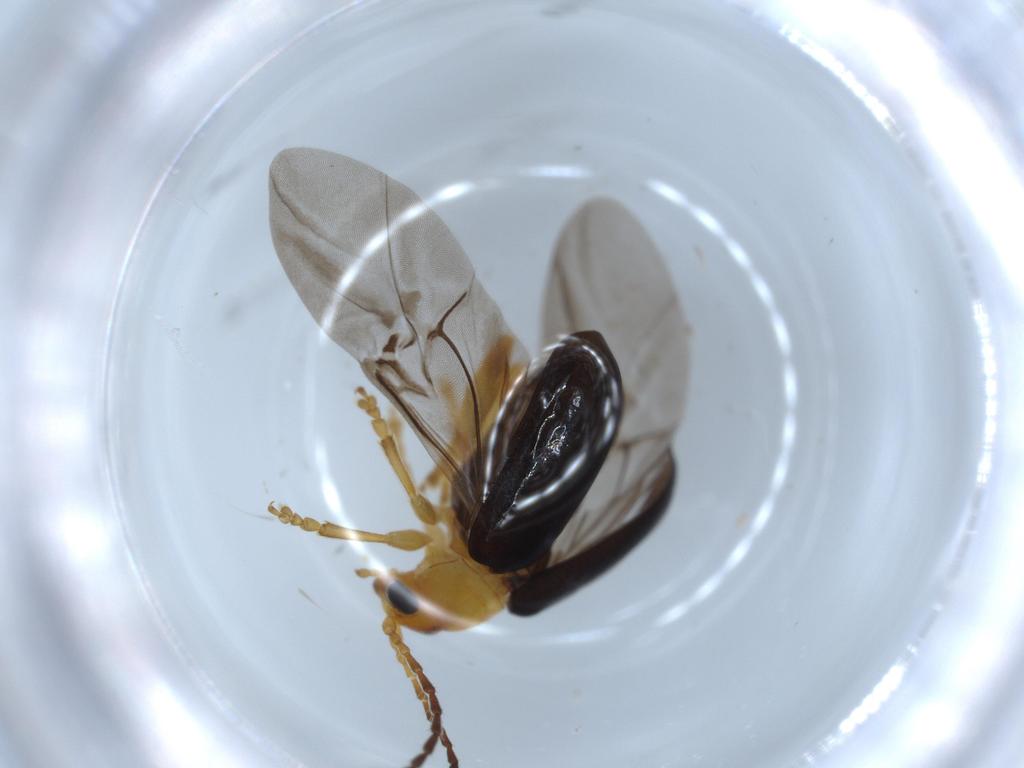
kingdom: Animalia
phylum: Arthropoda
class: Insecta
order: Coleoptera
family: Chrysomelidae
